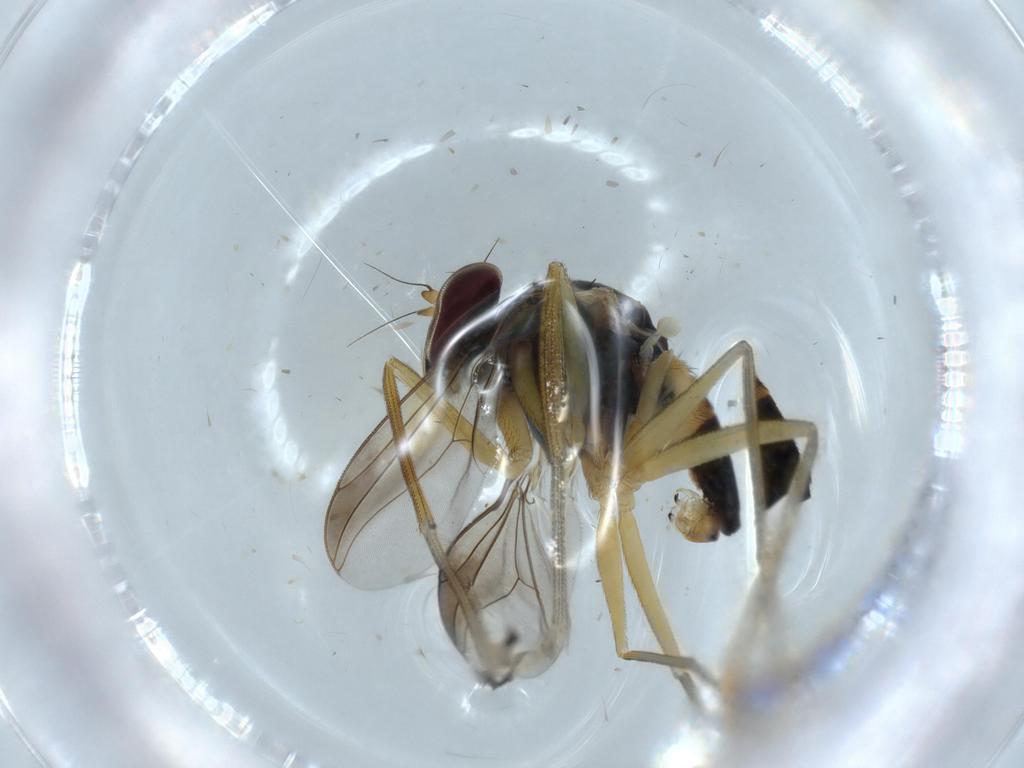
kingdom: Animalia
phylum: Arthropoda
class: Insecta
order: Diptera
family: Dolichopodidae
